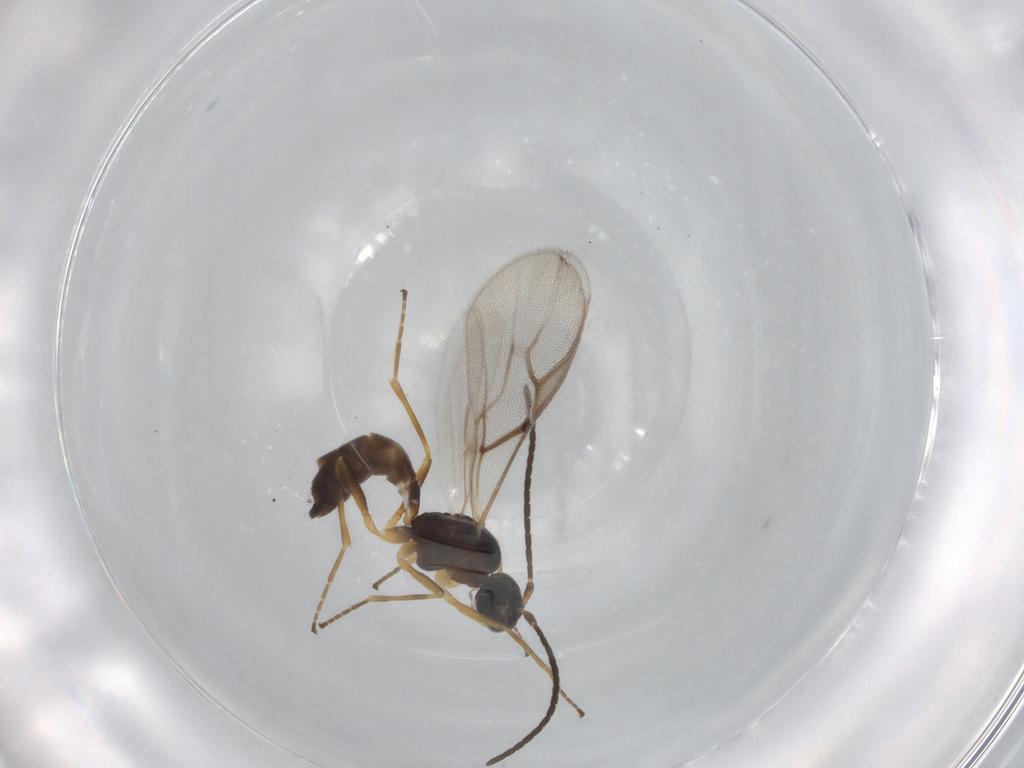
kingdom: Animalia
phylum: Arthropoda
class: Insecta
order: Hymenoptera
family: Braconidae
